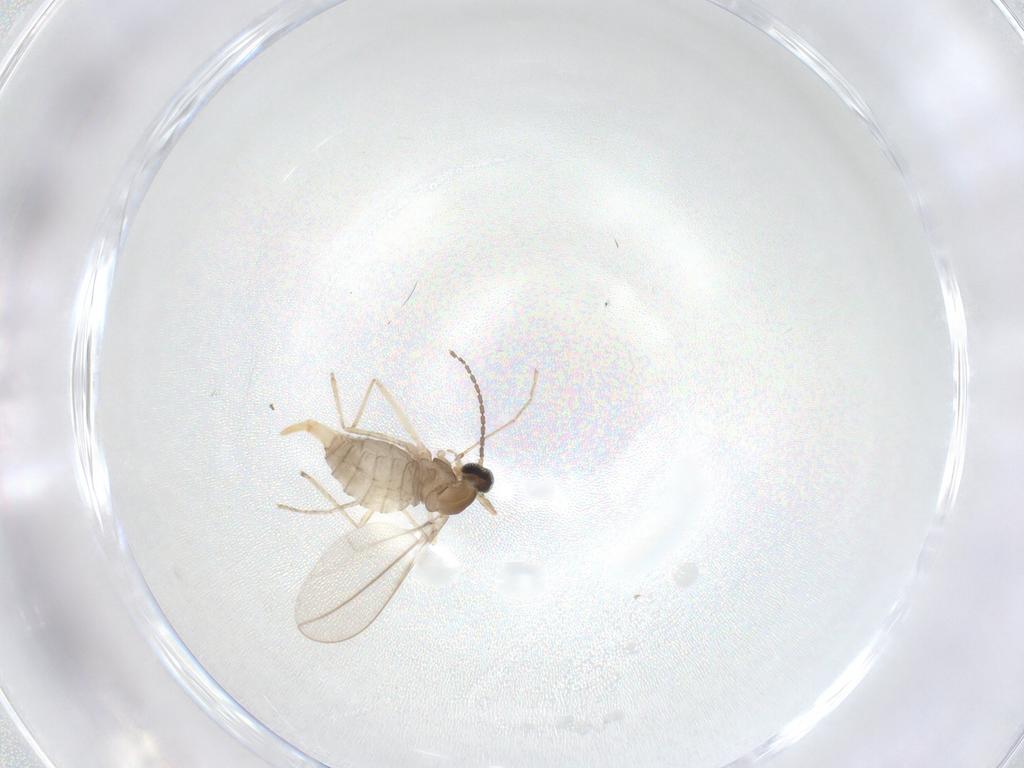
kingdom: Animalia
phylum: Arthropoda
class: Insecta
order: Diptera
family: Cecidomyiidae
